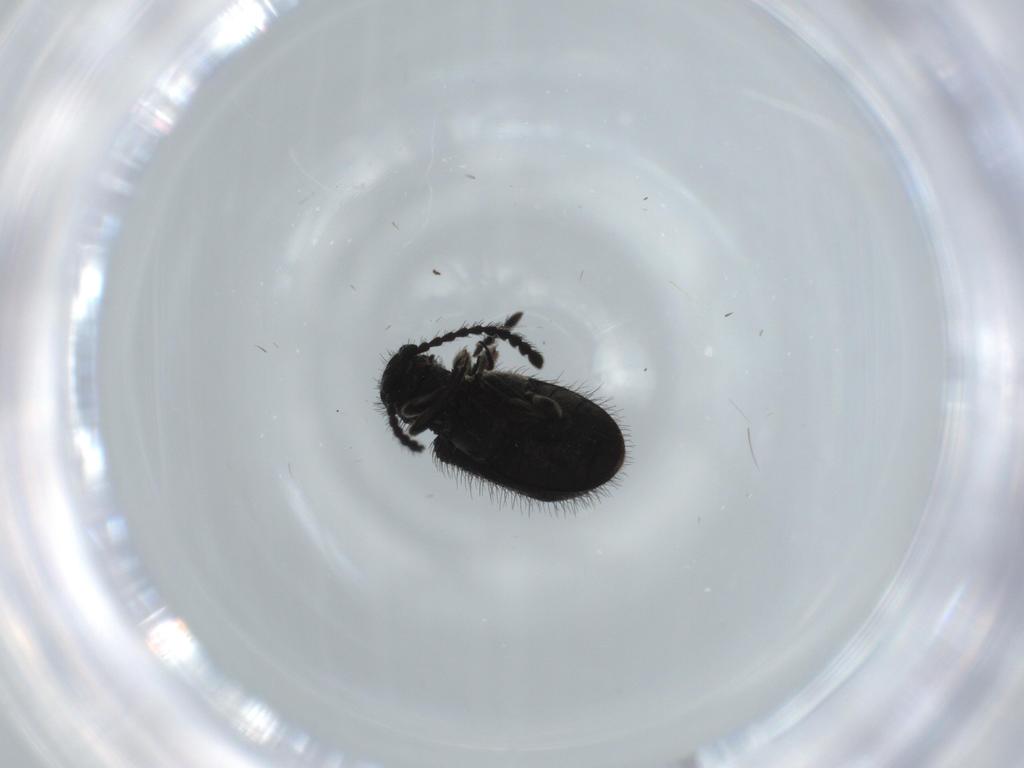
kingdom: Animalia
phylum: Arthropoda
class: Insecta
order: Coleoptera
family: Ptinidae
